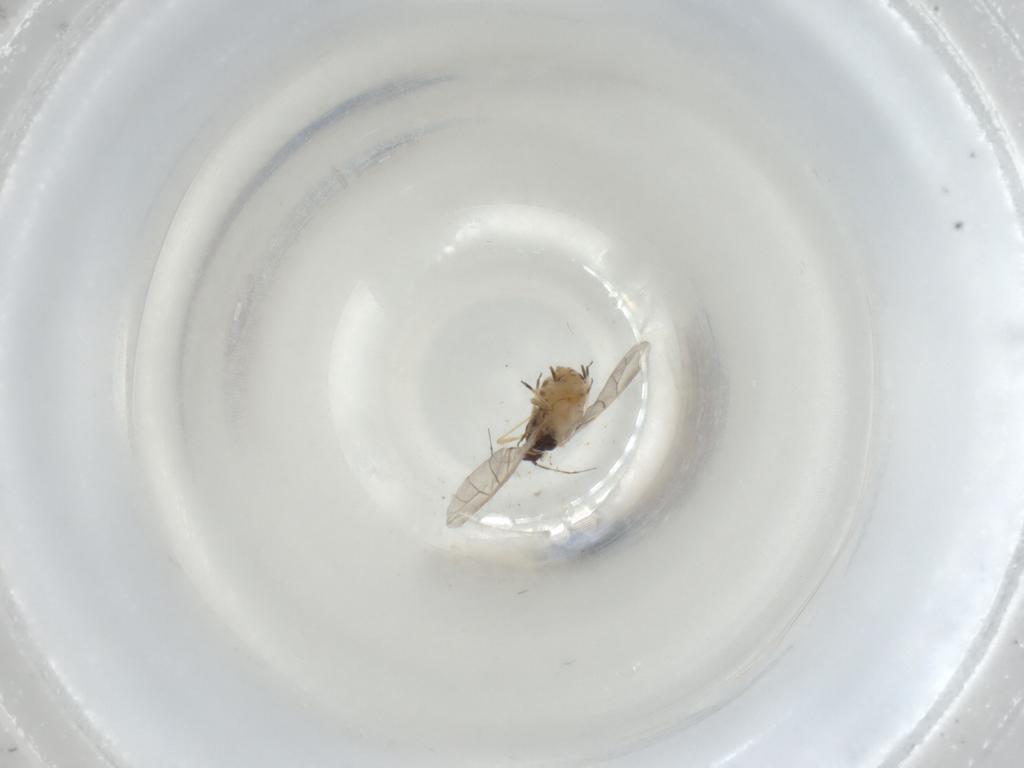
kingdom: Animalia
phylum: Arthropoda
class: Insecta
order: Hemiptera
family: Aphididae
